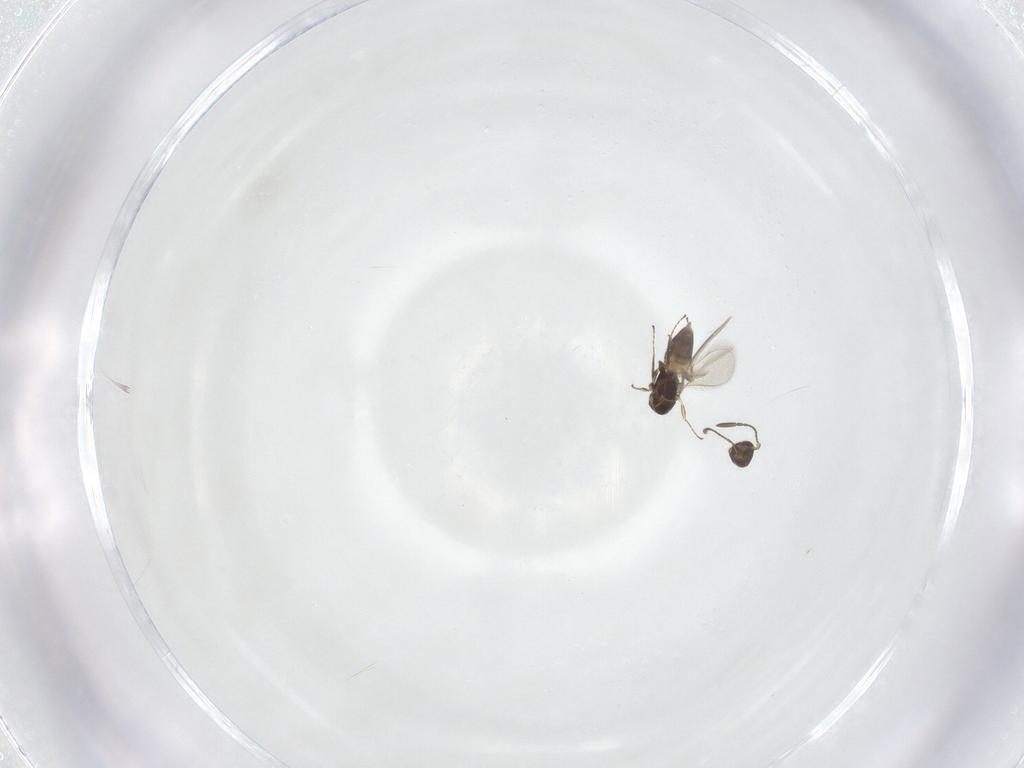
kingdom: Animalia
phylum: Arthropoda
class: Insecta
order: Hymenoptera
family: Mymaridae
